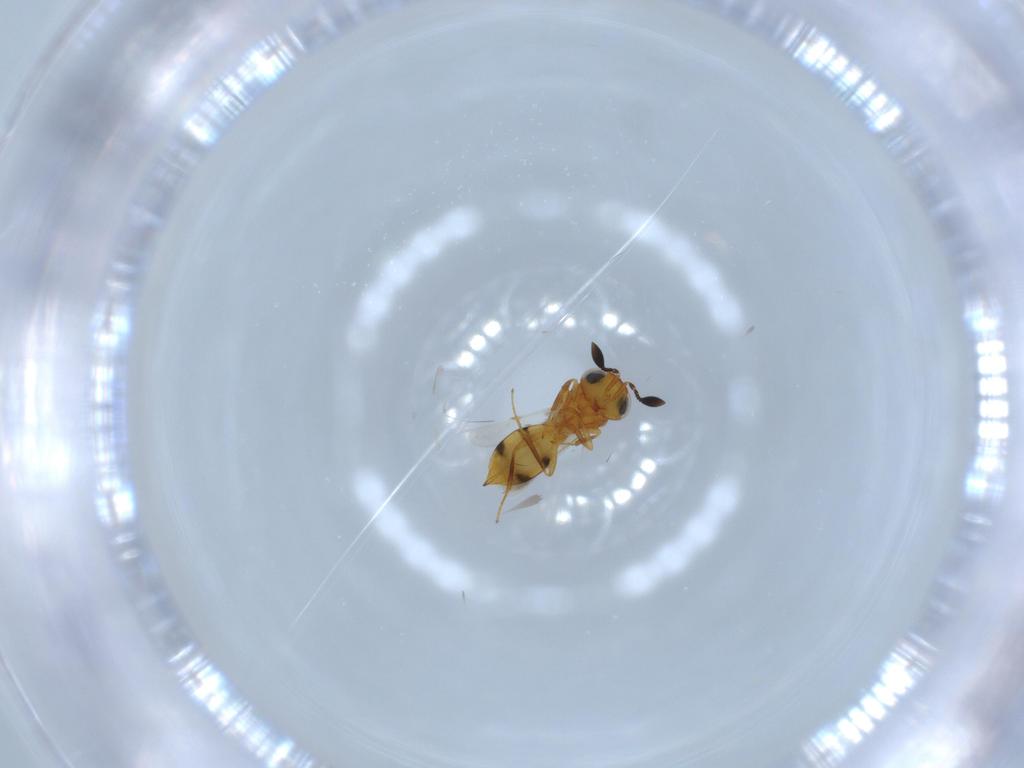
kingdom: Animalia
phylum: Arthropoda
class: Insecta
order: Hymenoptera
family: Scelionidae
